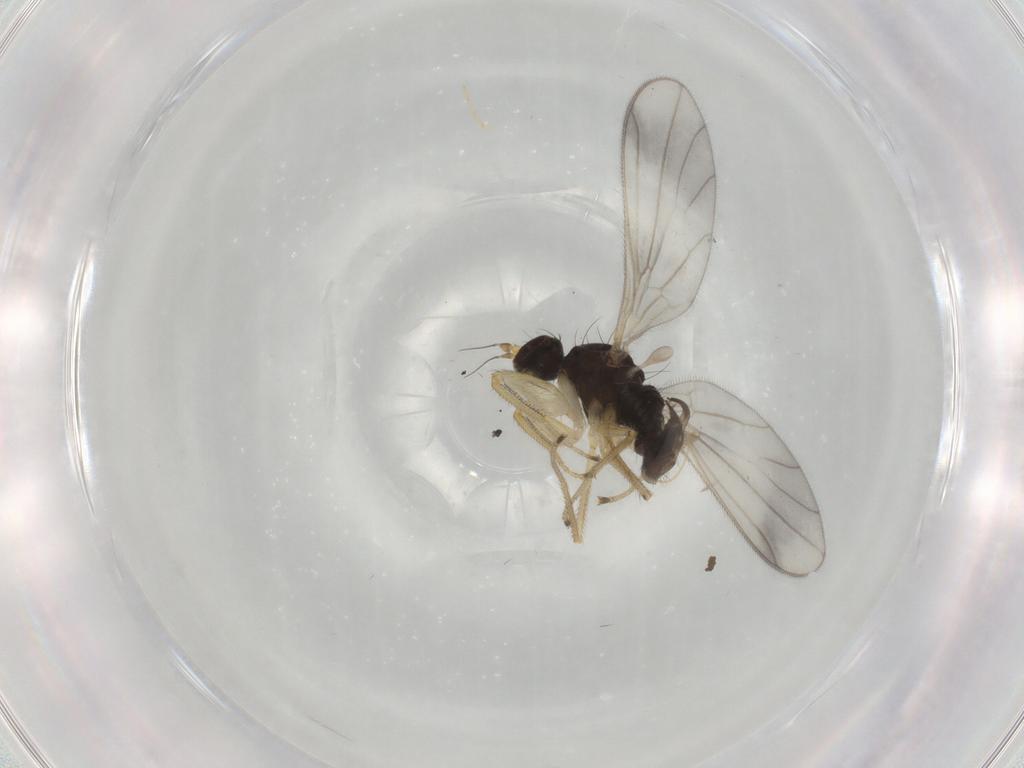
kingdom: Animalia
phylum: Arthropoda
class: Insecta
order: Diptera
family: Empididae
